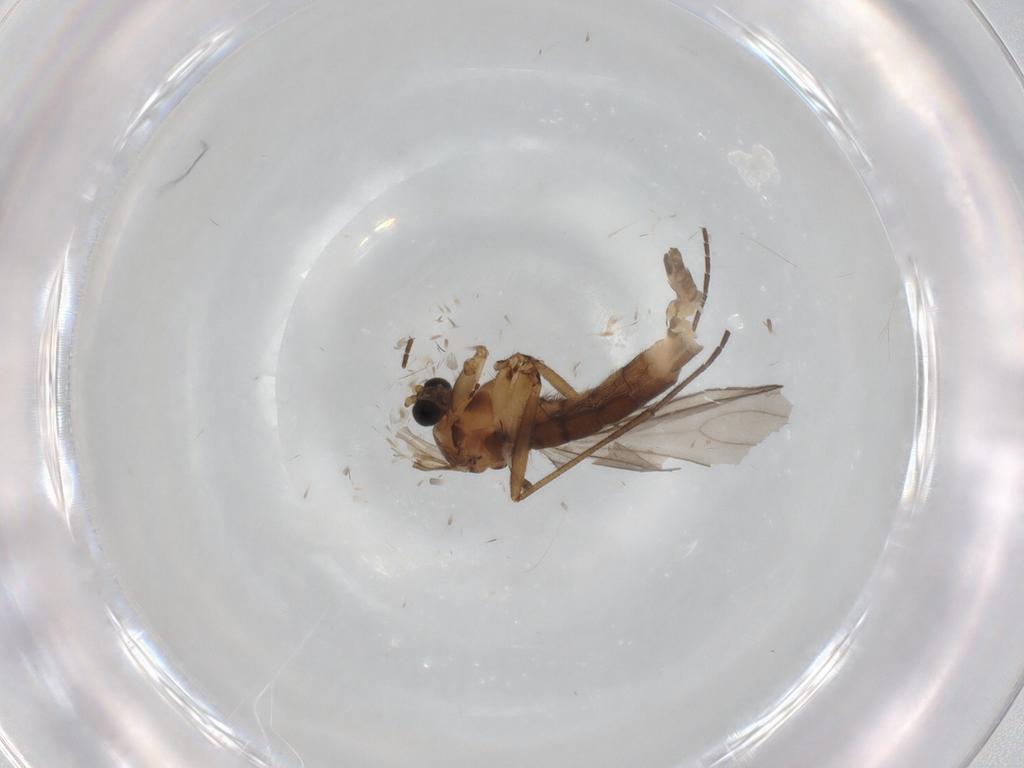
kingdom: Animalia
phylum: Arthropoda
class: Insecta
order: Diptera
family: Sciaridae
